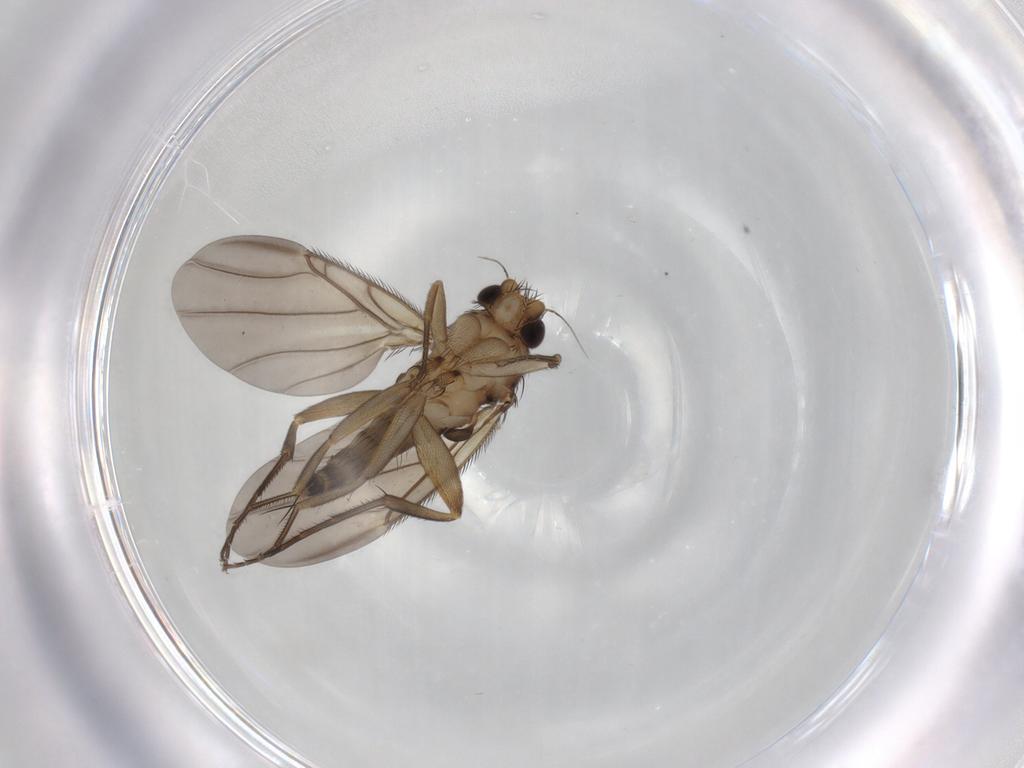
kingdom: Animalia
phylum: Arthropoda
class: Insecta
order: Diptera
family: Phoridae
